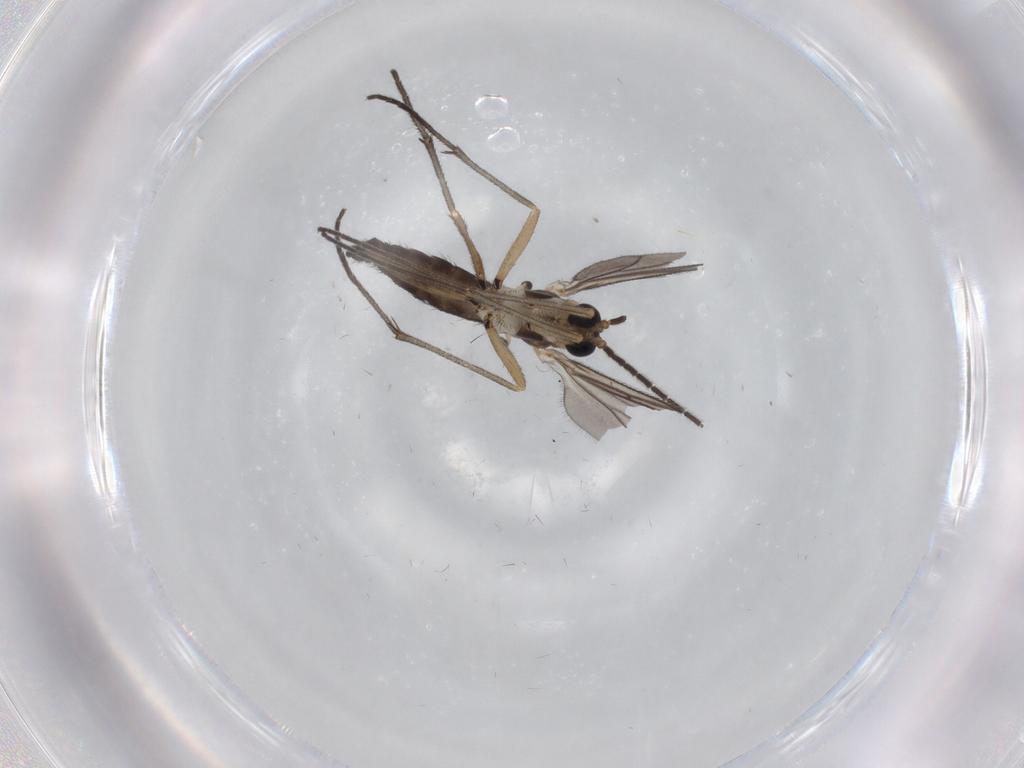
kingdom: Animalia
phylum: Arthropoda
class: Insecta
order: Diptera
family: Sciaridae
